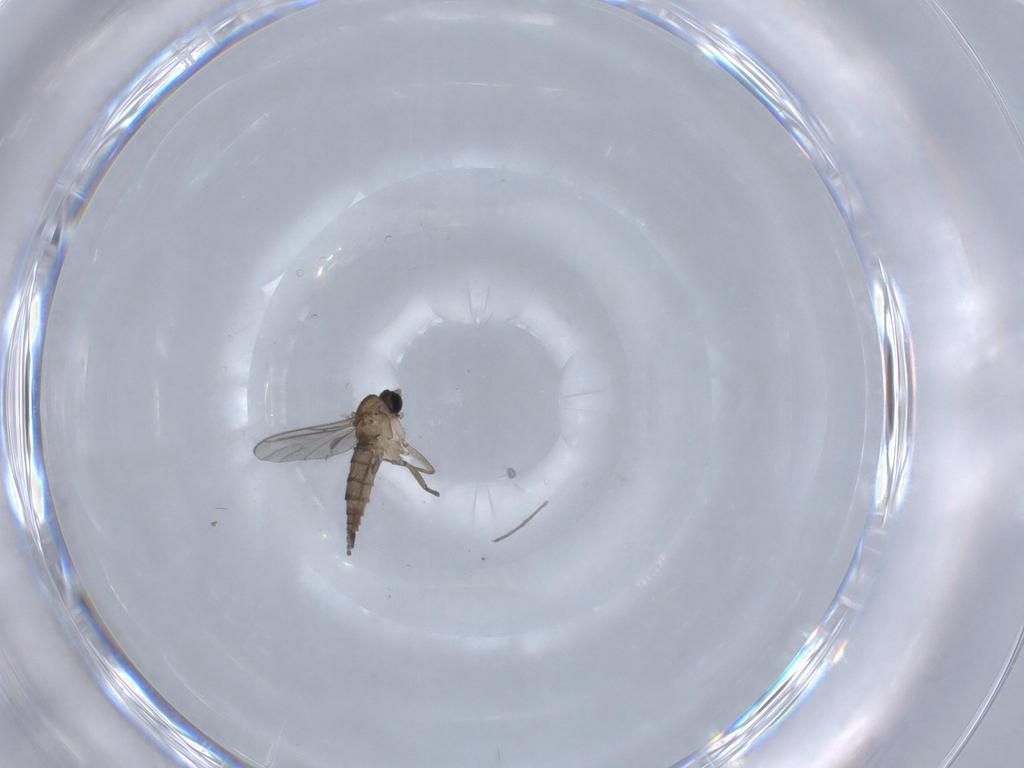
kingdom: Animalia
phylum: Arthropoda
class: Insecta
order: Diptera
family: Sciaridae
